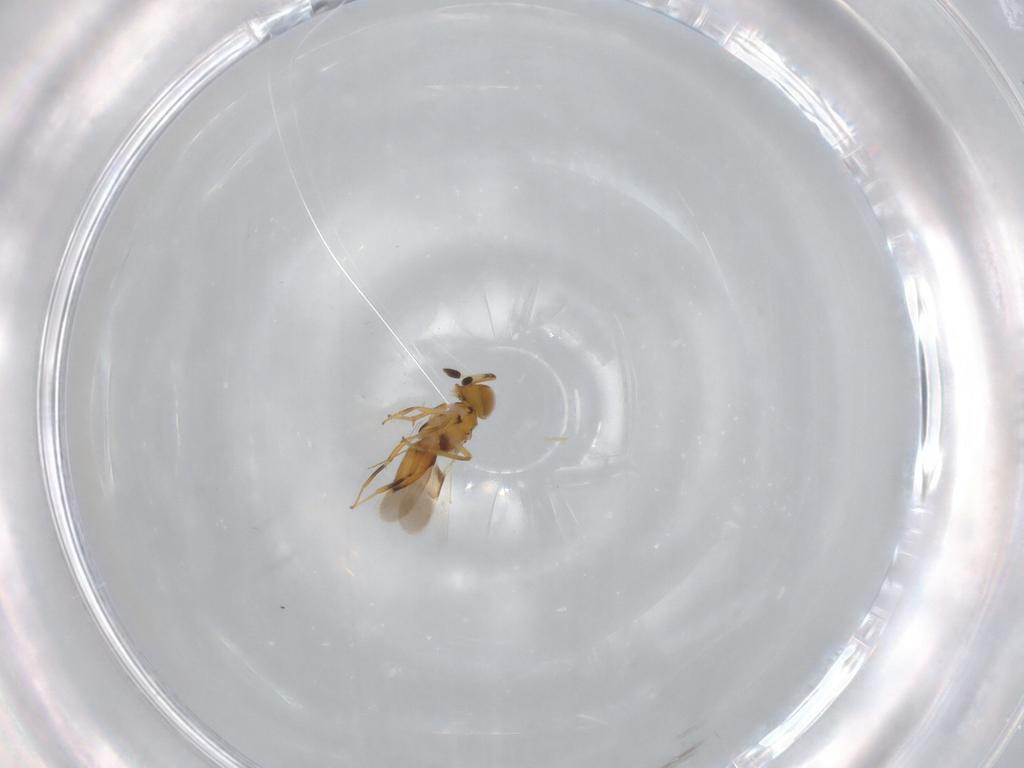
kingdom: Animalia
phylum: Arthropoda
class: Insecta
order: Hymenoptera
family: Encyrtidae
